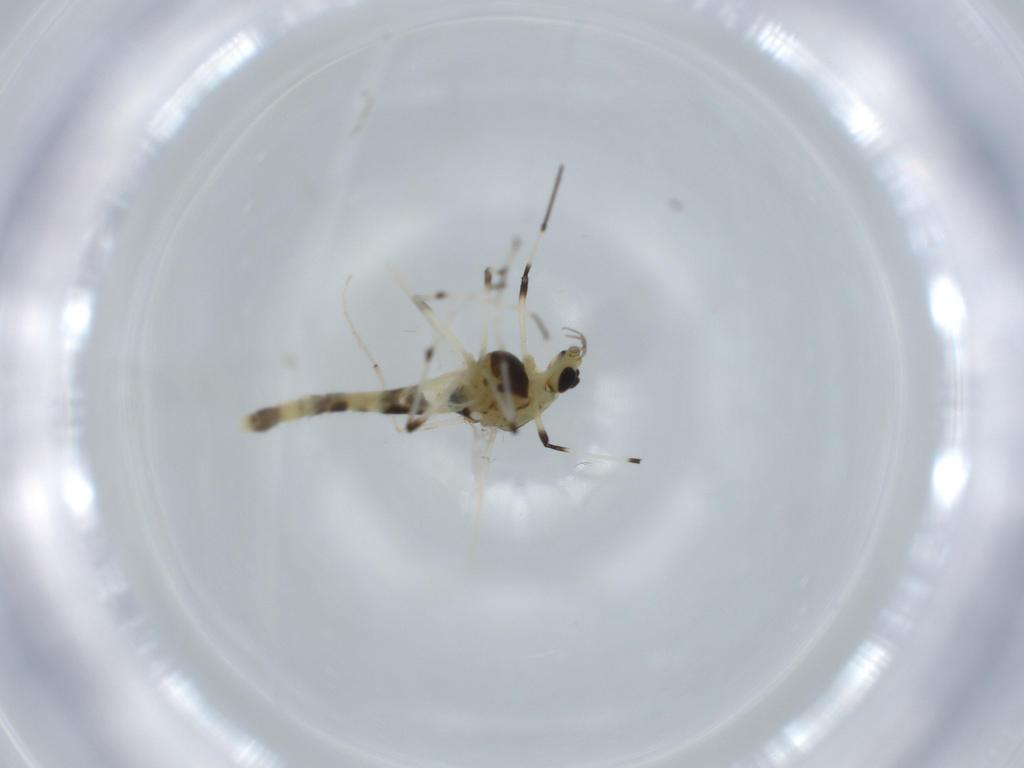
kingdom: Animalia
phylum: Arthropoda
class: Insecta
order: Diptera
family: Chironomidae
